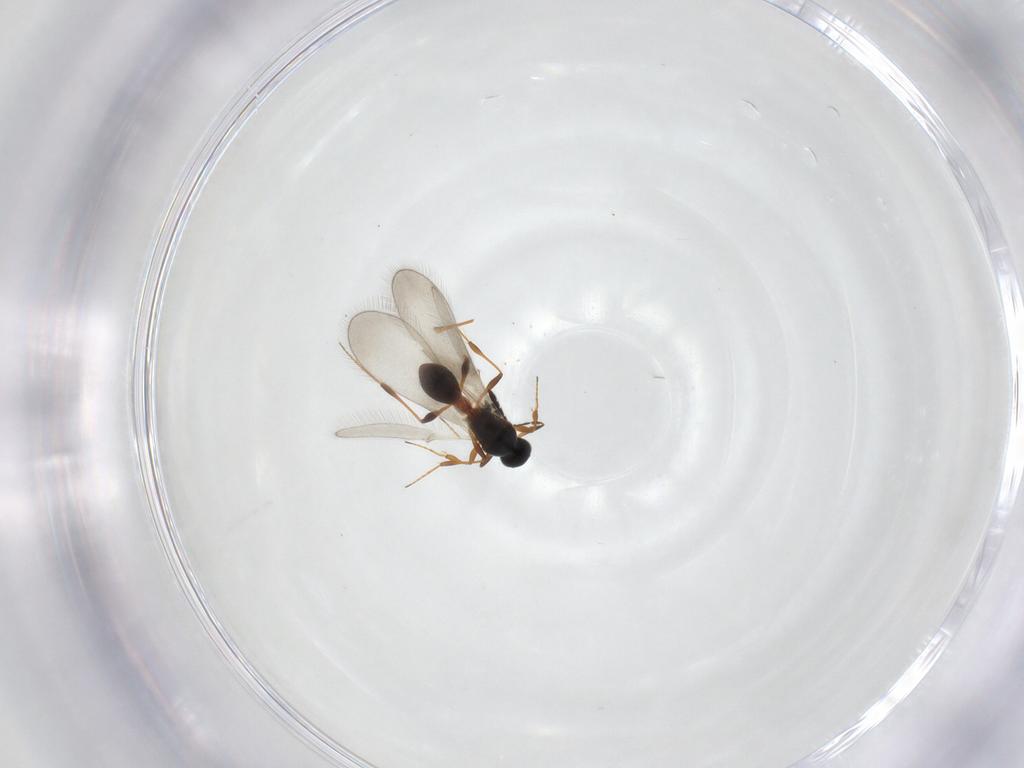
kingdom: Animalia
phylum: Arthropoda
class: Insecta
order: Hymenoptera
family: Platygastridae
